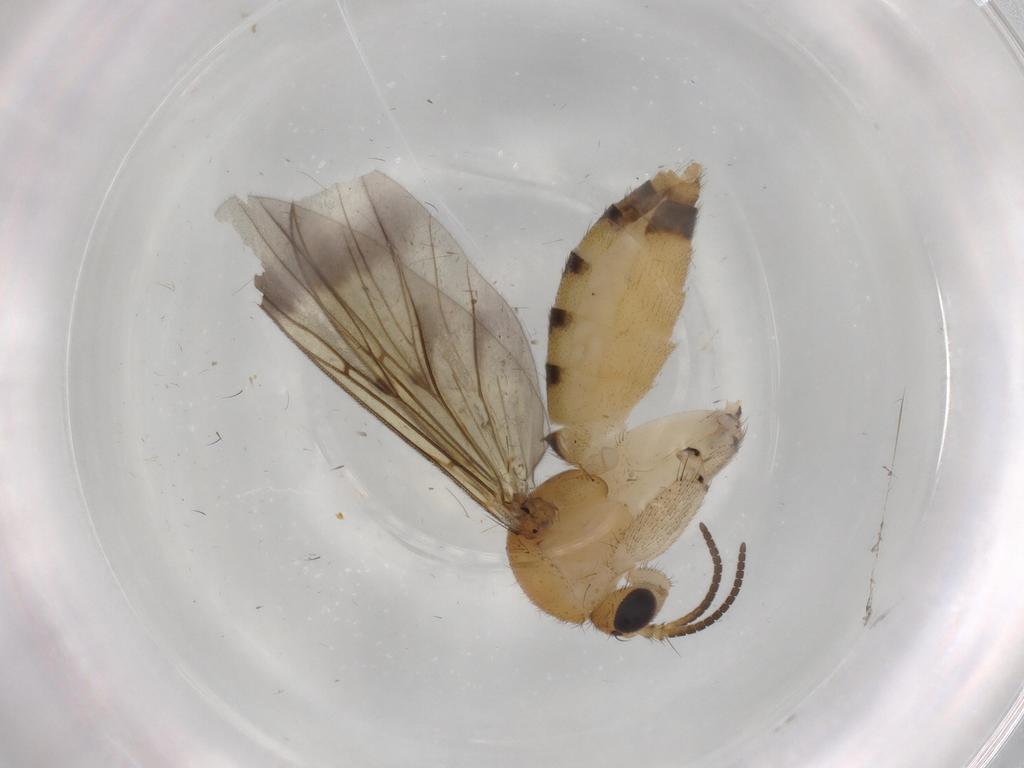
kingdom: Animalia
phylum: Arthropoda
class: Insecta
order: Diptera
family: Mycetophilidae
